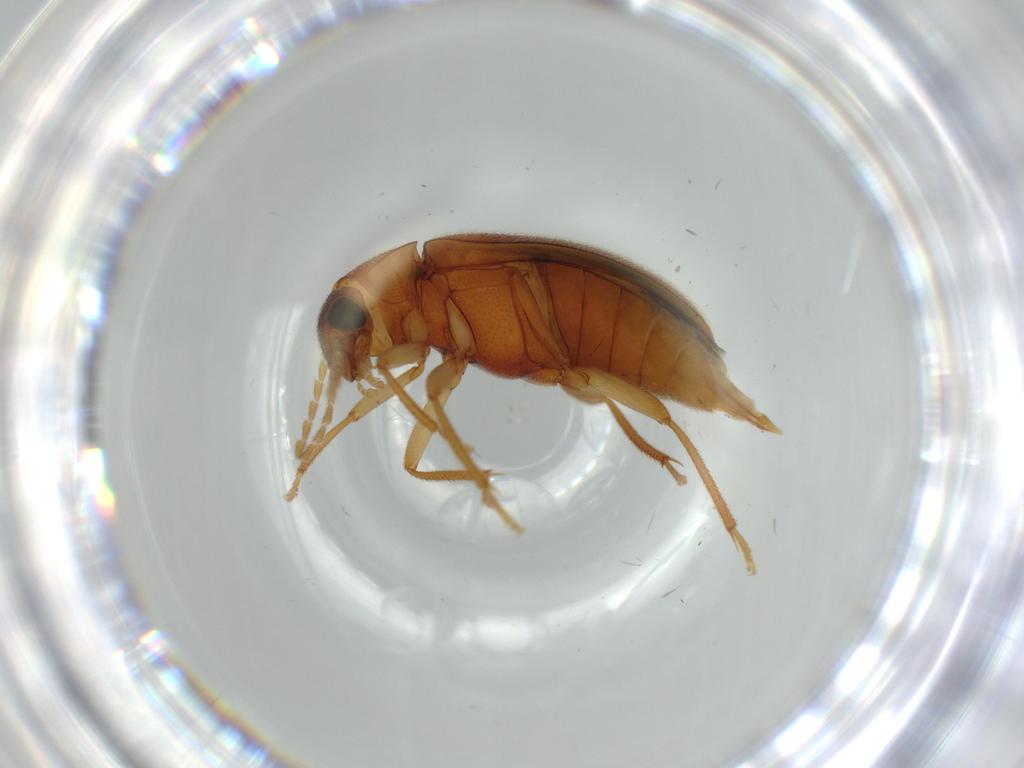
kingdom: Animalia
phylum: Arthropoda
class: Insecta
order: Coleoptera
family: Ptilodactylidae
